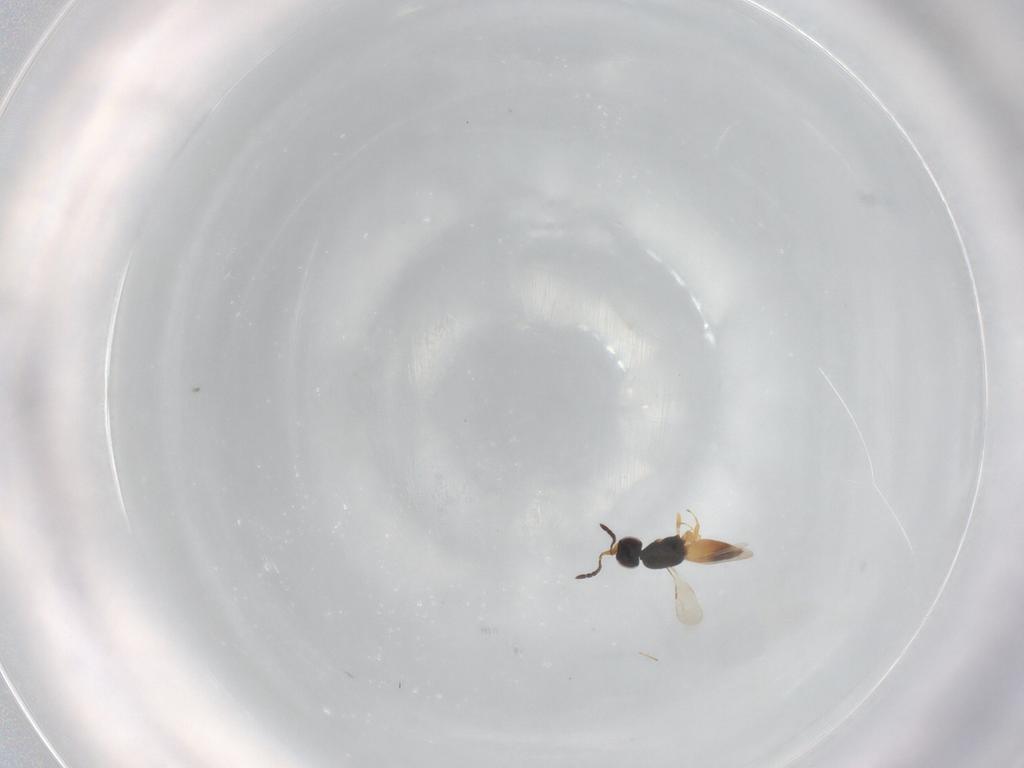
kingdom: Animalia
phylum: Arthropoda
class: Insecta
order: Hymenoptera
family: Ceraphronidae
